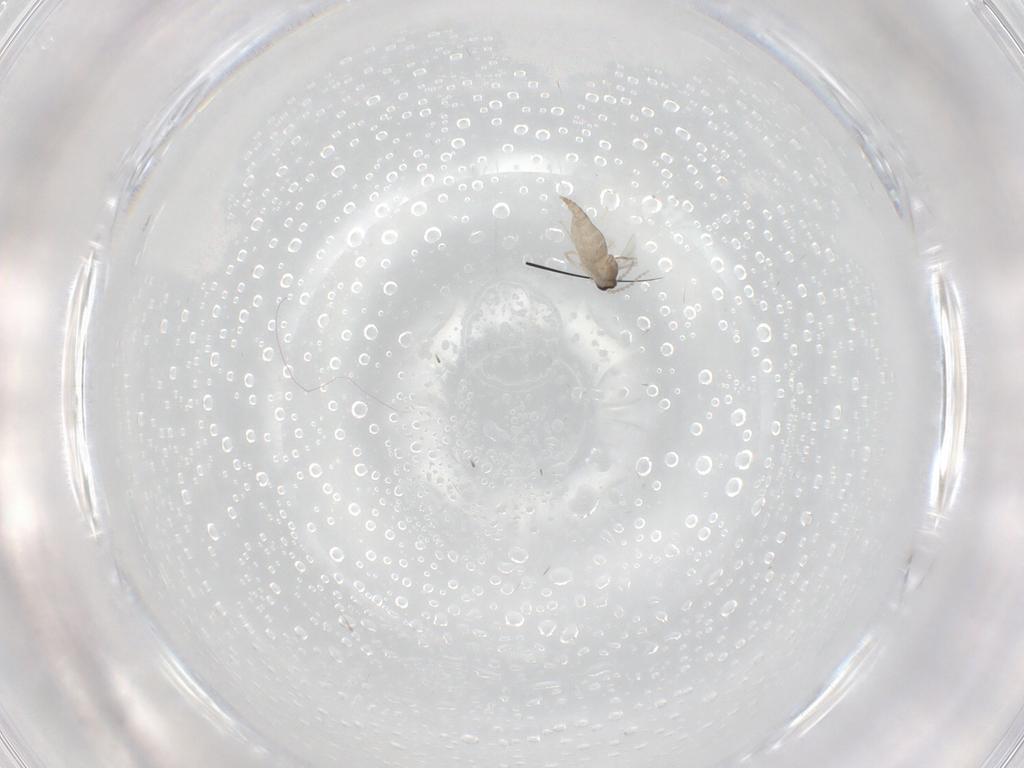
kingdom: Animalia
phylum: Arthropoda
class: Insecta
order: Diptera
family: Cecidomyiidae
